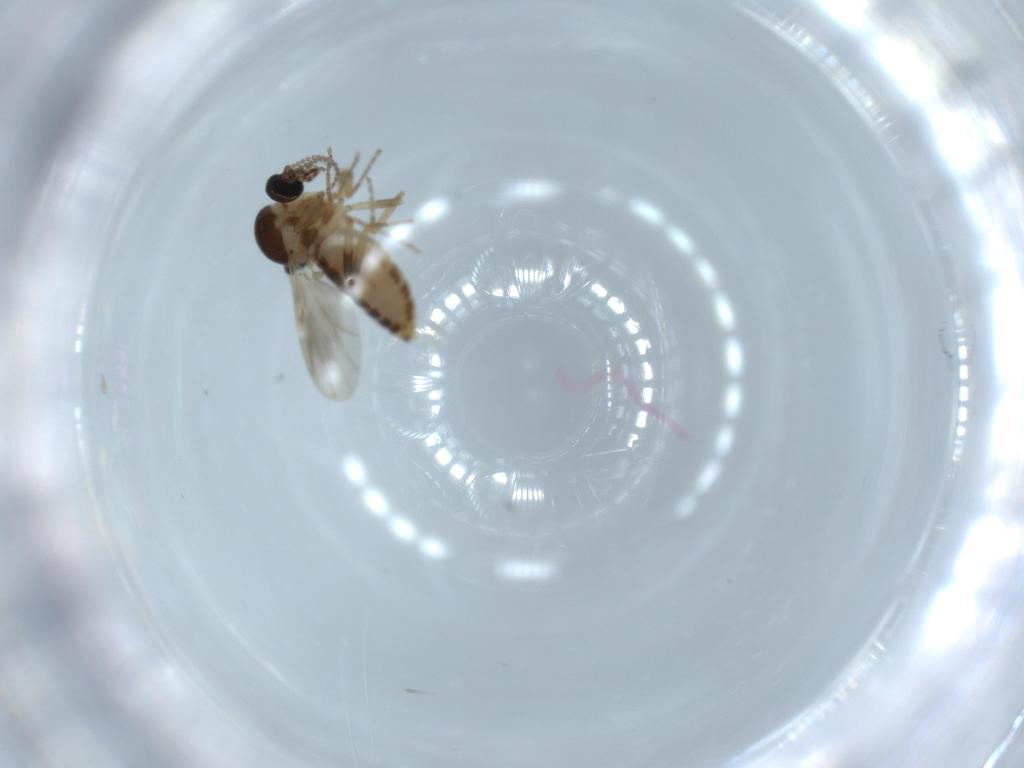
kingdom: Animalia
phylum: Arthropoda
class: Insecta
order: Diptera
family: Ceratopogonidae
